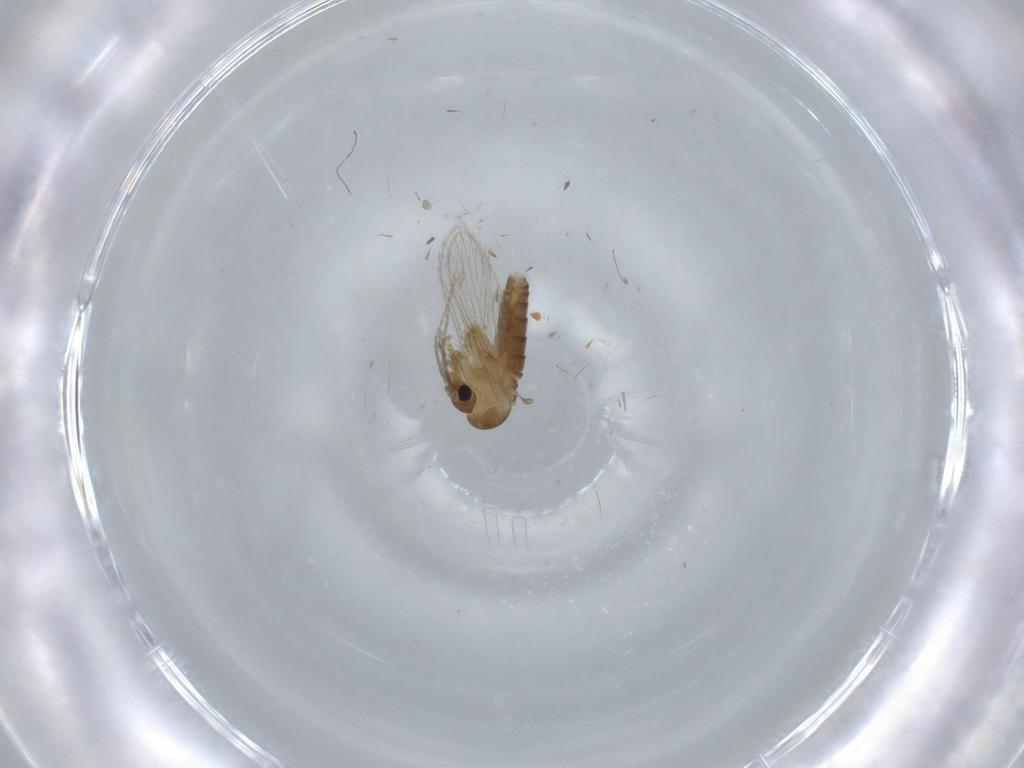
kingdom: Animalia
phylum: Arthropoda
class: Insecta
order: Diptera
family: Psychodidae
